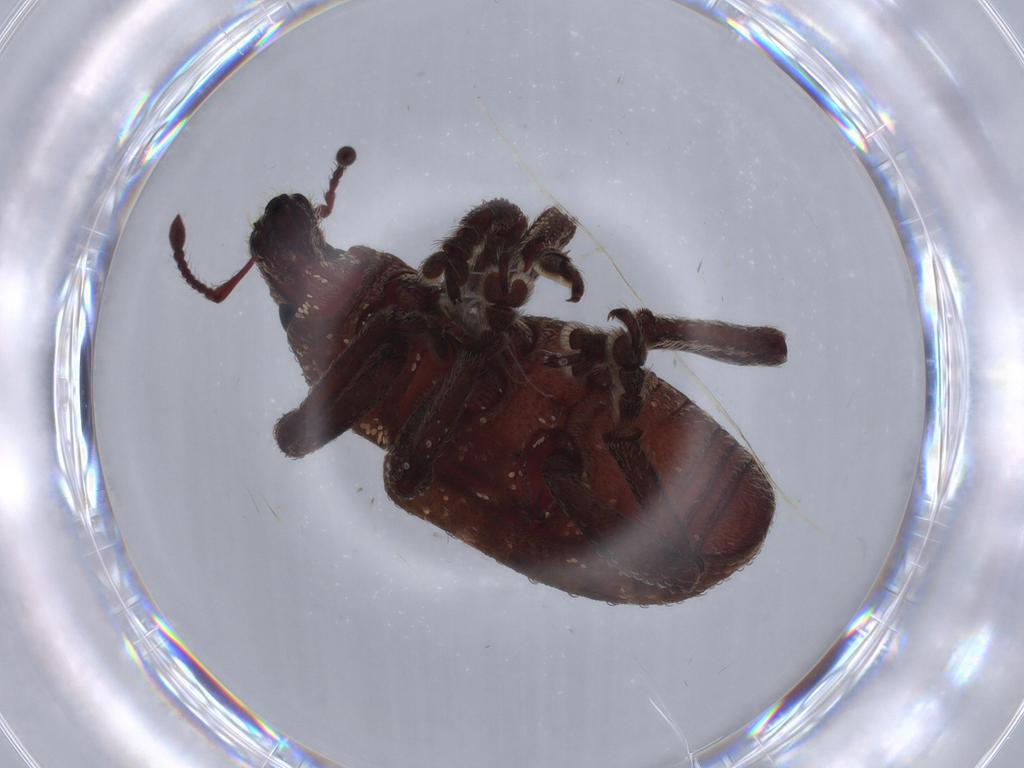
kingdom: Animalia
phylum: Arthropoda
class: Insecta
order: Coleoptera
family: Curculionidae
